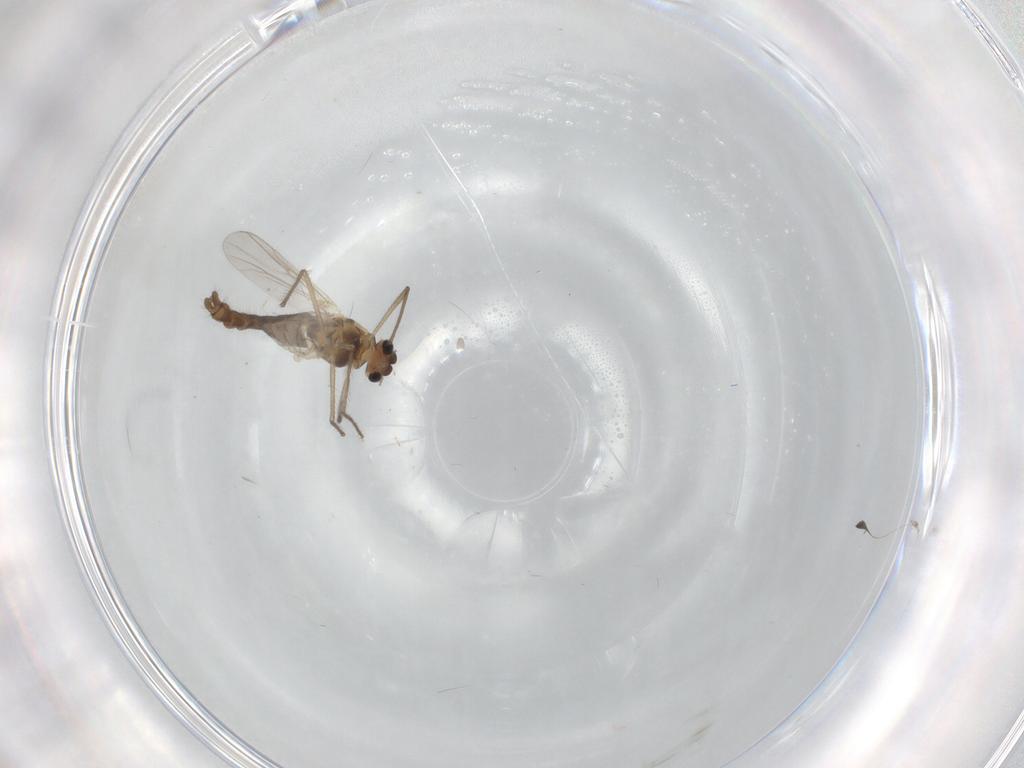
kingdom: Animalia
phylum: Arthropoda
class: Insecta
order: Diptera
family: Chironomidae
